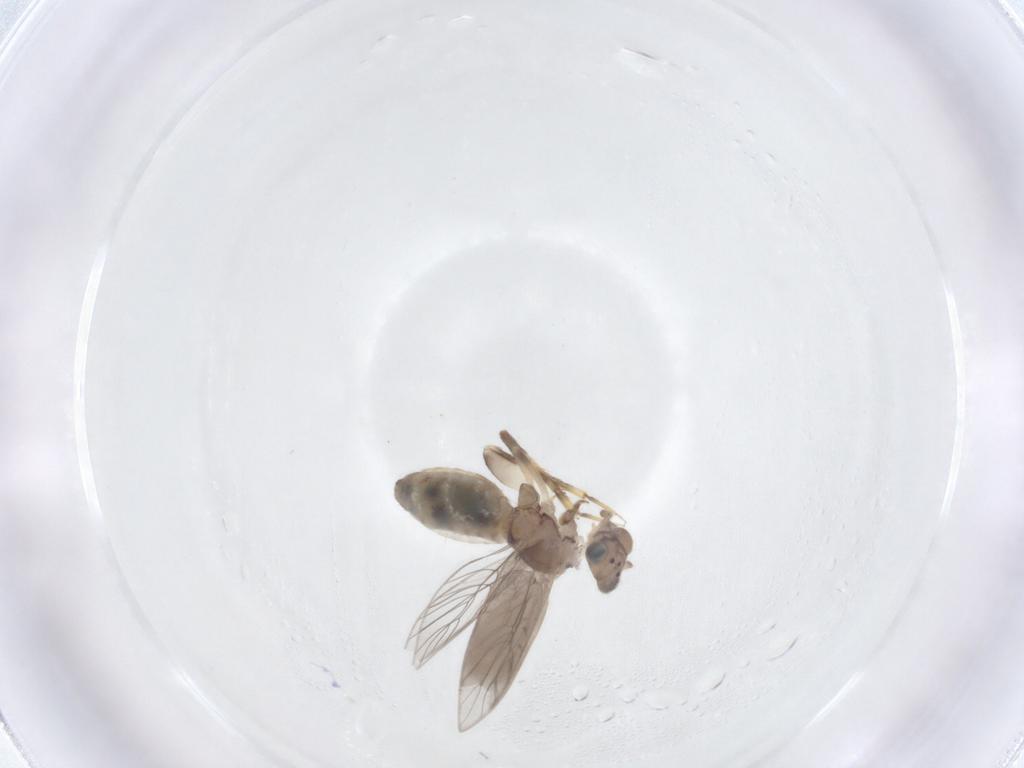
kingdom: Animalia
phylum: Arthropoda
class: Insecta
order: Psocodea
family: Lepidopsocidae
